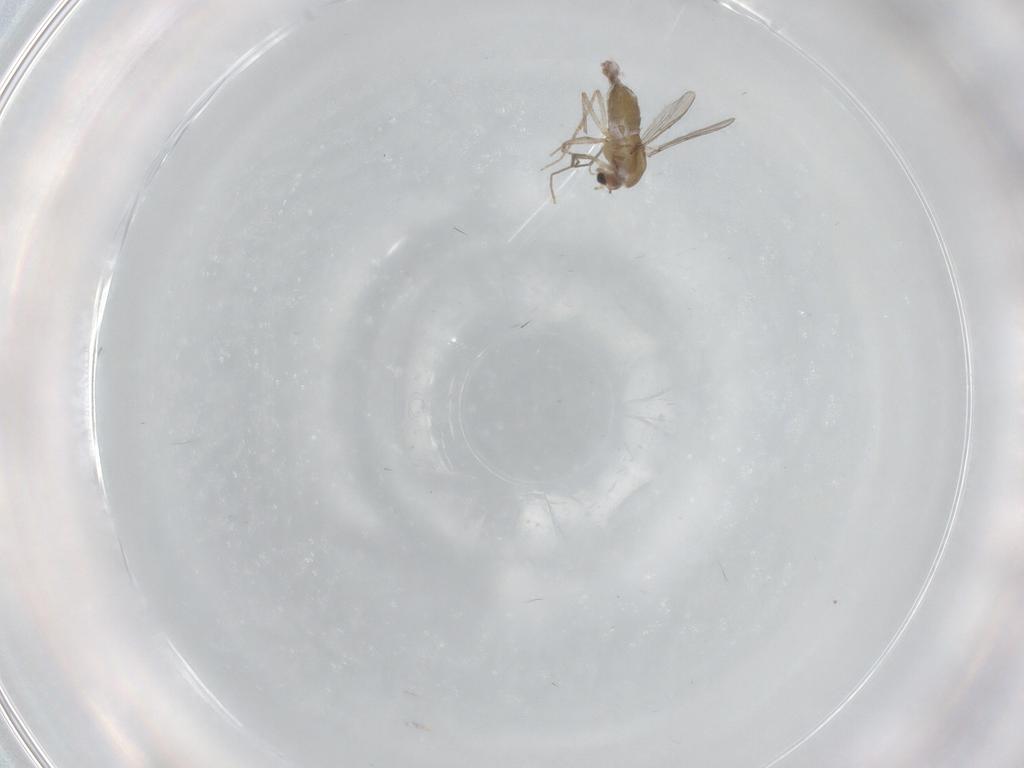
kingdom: Animalia
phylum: Arthropoda
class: Insecta
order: Diptera
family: Chironomidae
